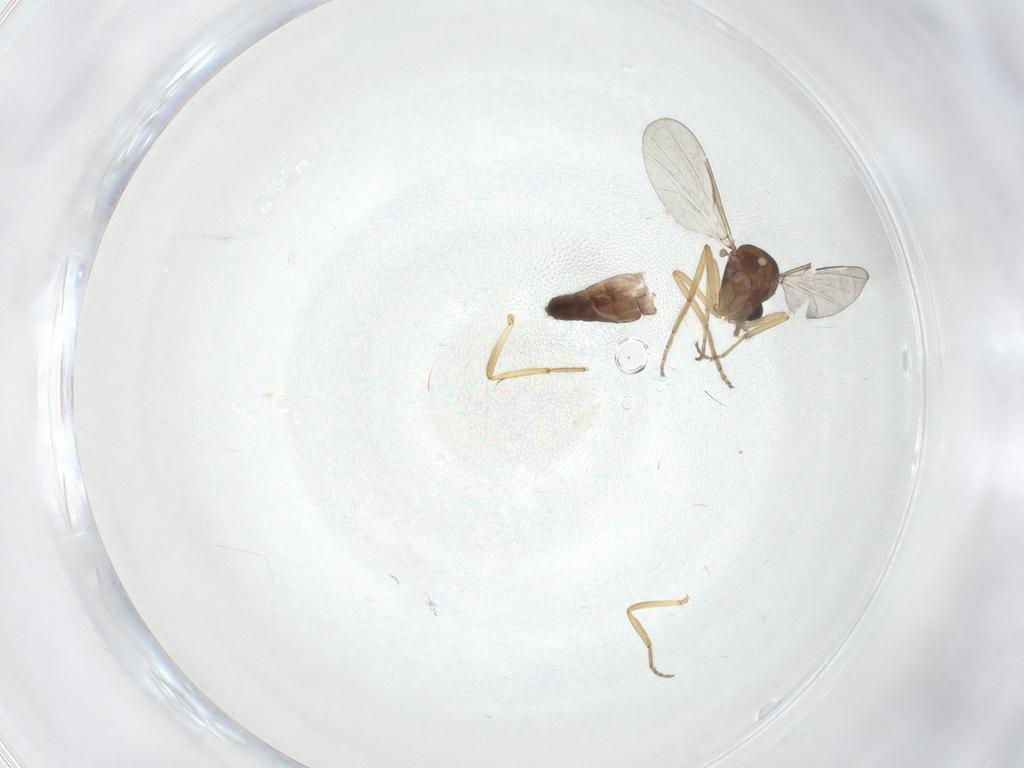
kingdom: Animalia
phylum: Arthropoda
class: Insecta
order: Diptera
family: Ceratopogonidae
